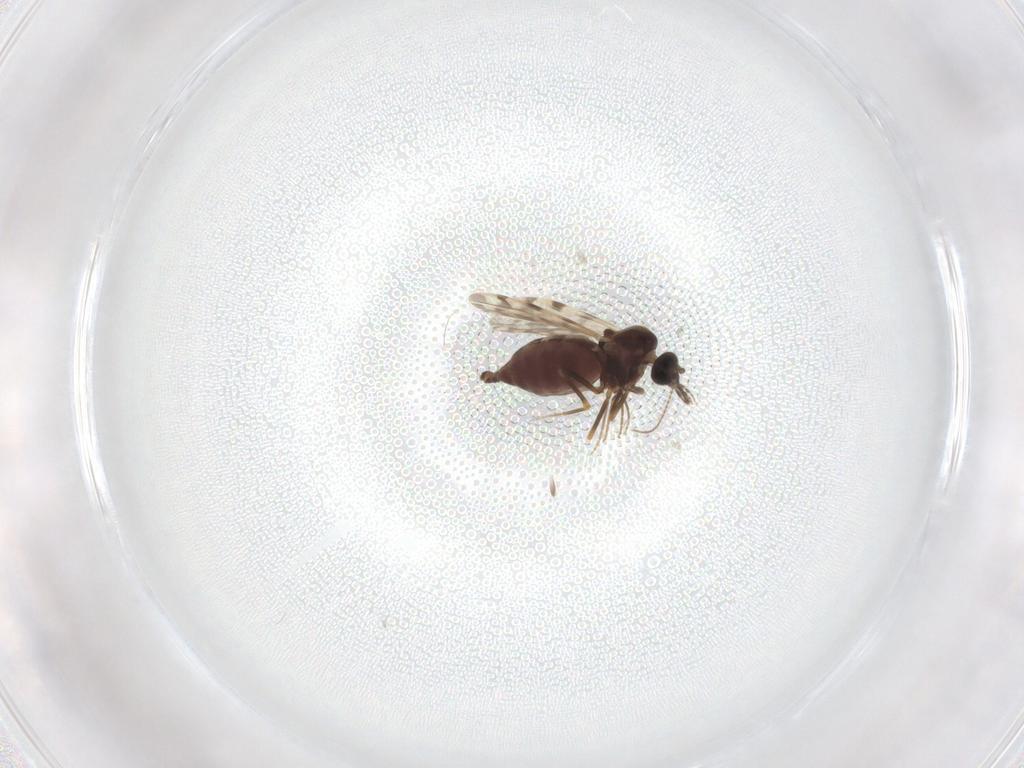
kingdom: Animalia
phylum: Arthropoda
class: Insecta
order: Diptera
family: Ceratopogonidae
